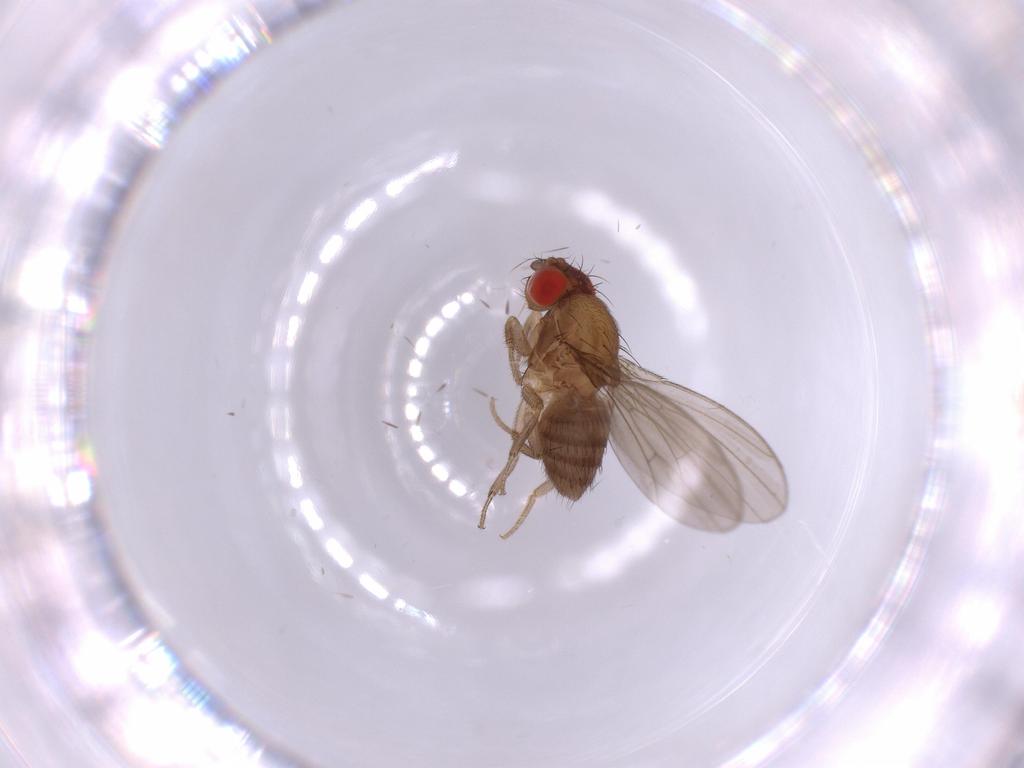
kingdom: Animalia
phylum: Arthropoda
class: Insecta
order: Diptera
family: Drosophilidae
